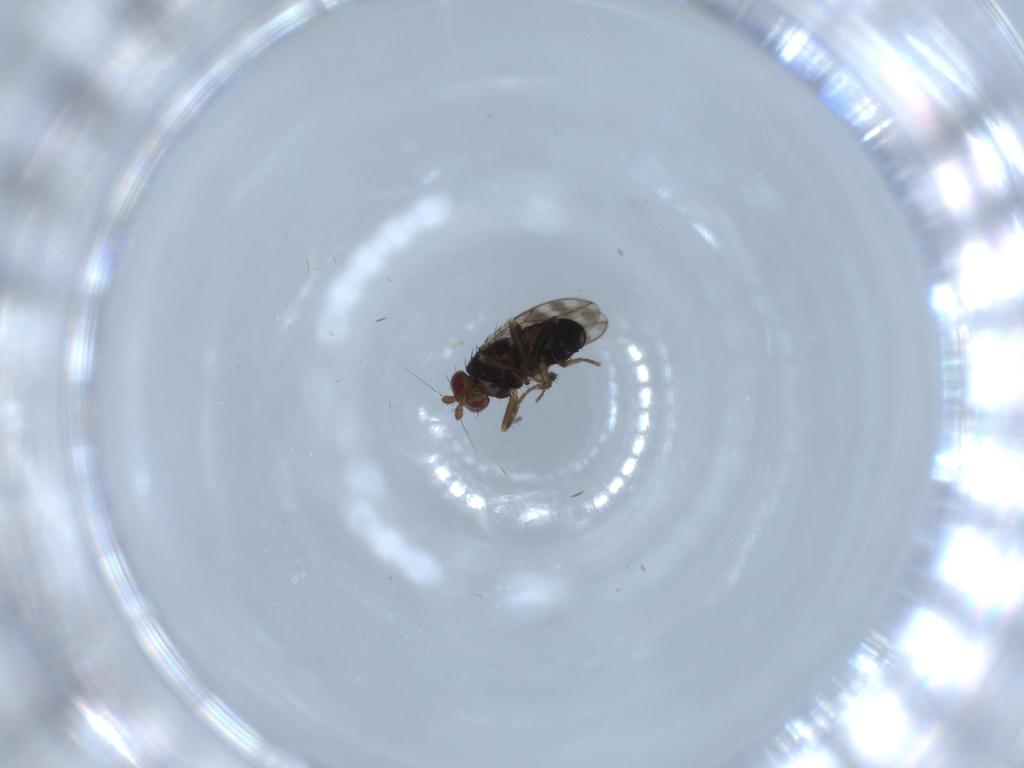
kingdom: Animalia
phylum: Arthropoda
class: Insecta
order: Diptera
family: Sphaeroceridae
